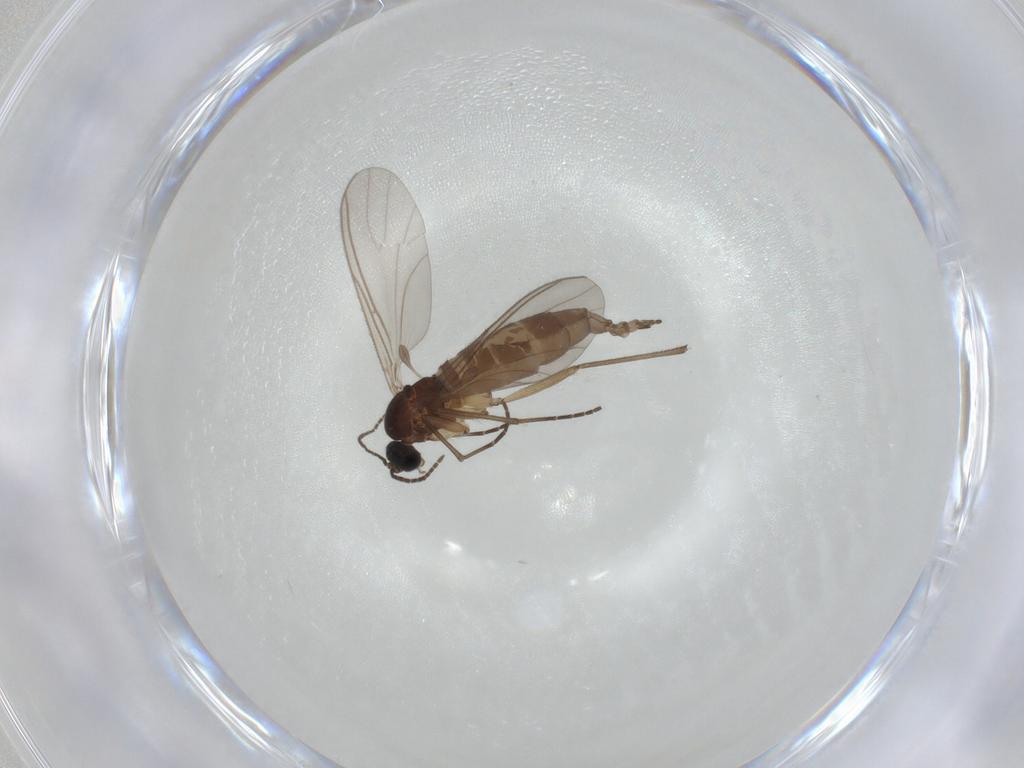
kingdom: Animalia
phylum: Arthropoda
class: Insecta
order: Diptera
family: Sciaridae
